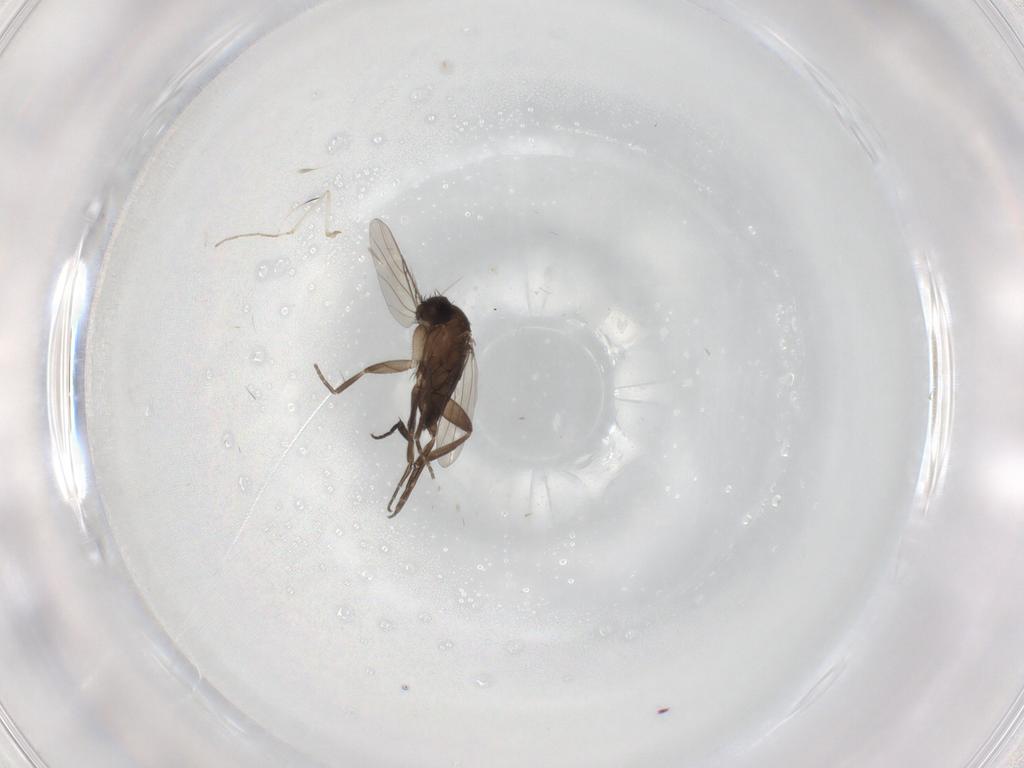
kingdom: Animalia
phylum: Arthropoda
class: Insecta
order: Diptera
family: Phoridae
